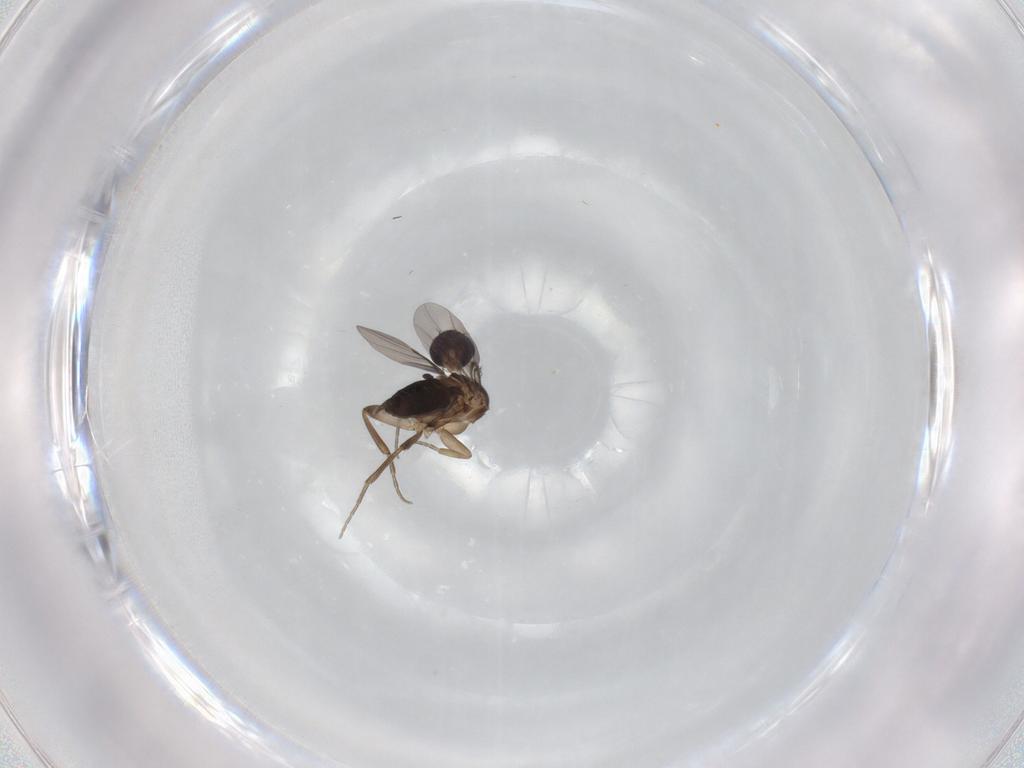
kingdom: Animalia
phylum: Arthropoda
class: Insecta
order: Diptera
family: Phoridae
